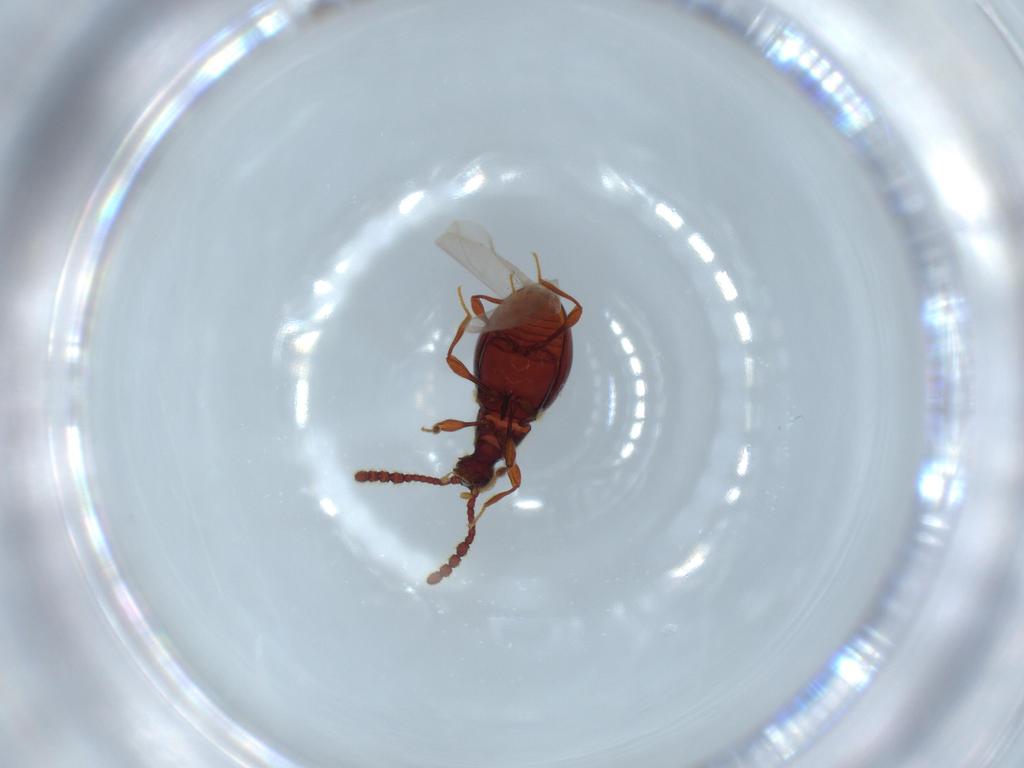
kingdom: Animalia
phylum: Arthropoda
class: Insecta
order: Coleoptera
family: Staphylinidae
